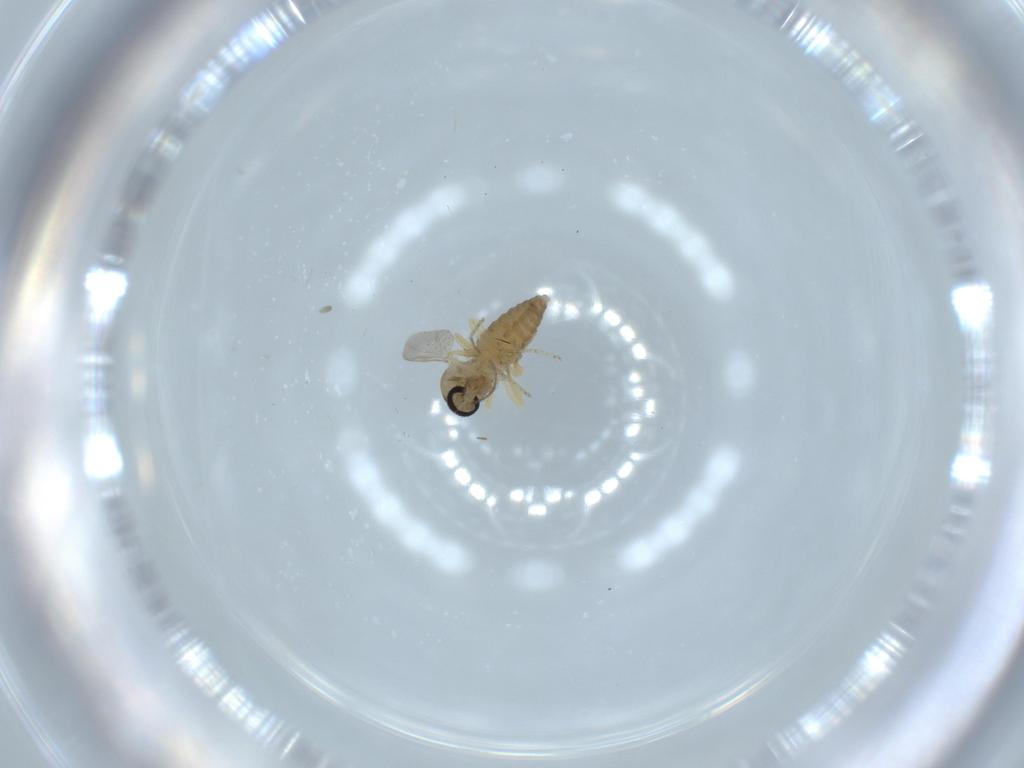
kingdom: Animalia
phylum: Arthropoda
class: Insecta
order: Diptera
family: Ceratopogonidae
